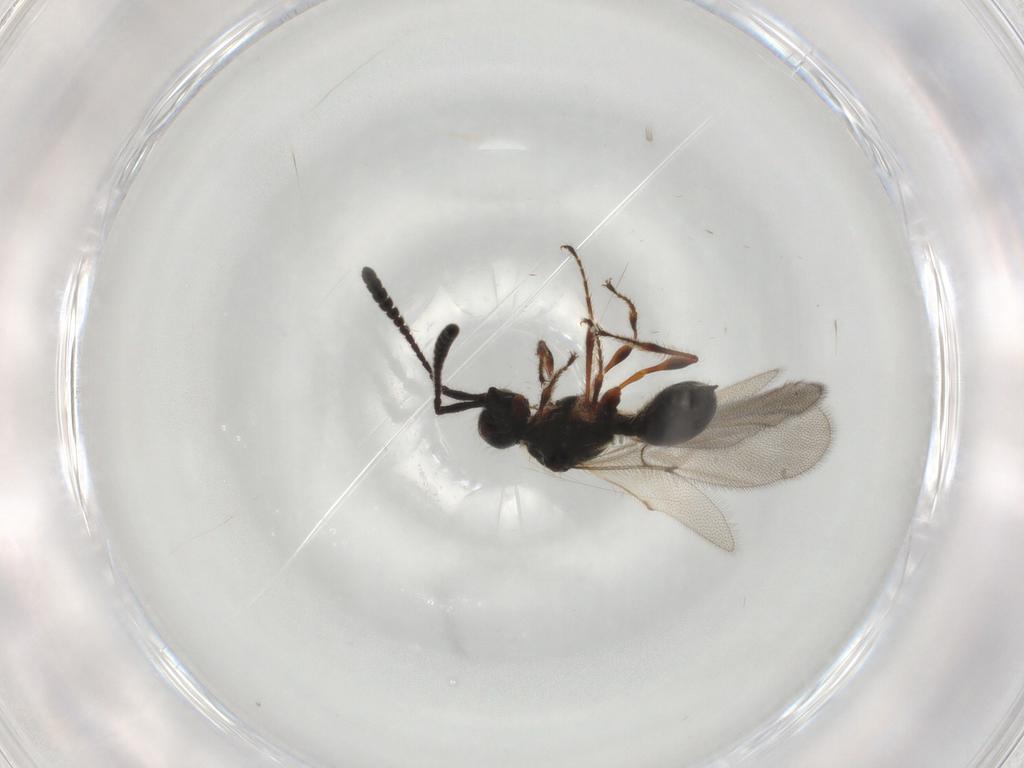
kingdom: Animalia
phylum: Arthropoda
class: Insecta
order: Hymenoptera
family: Diapriidae
